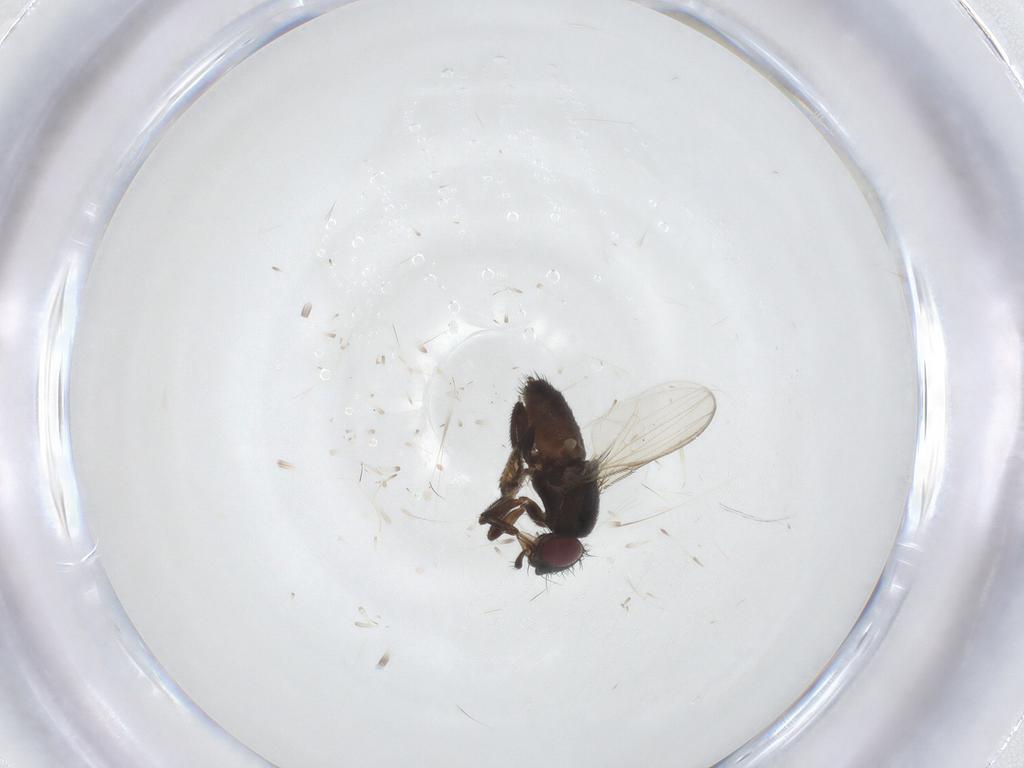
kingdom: Animalia
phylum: Arthropoda
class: Insecta
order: Diptera
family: Milichiidae
